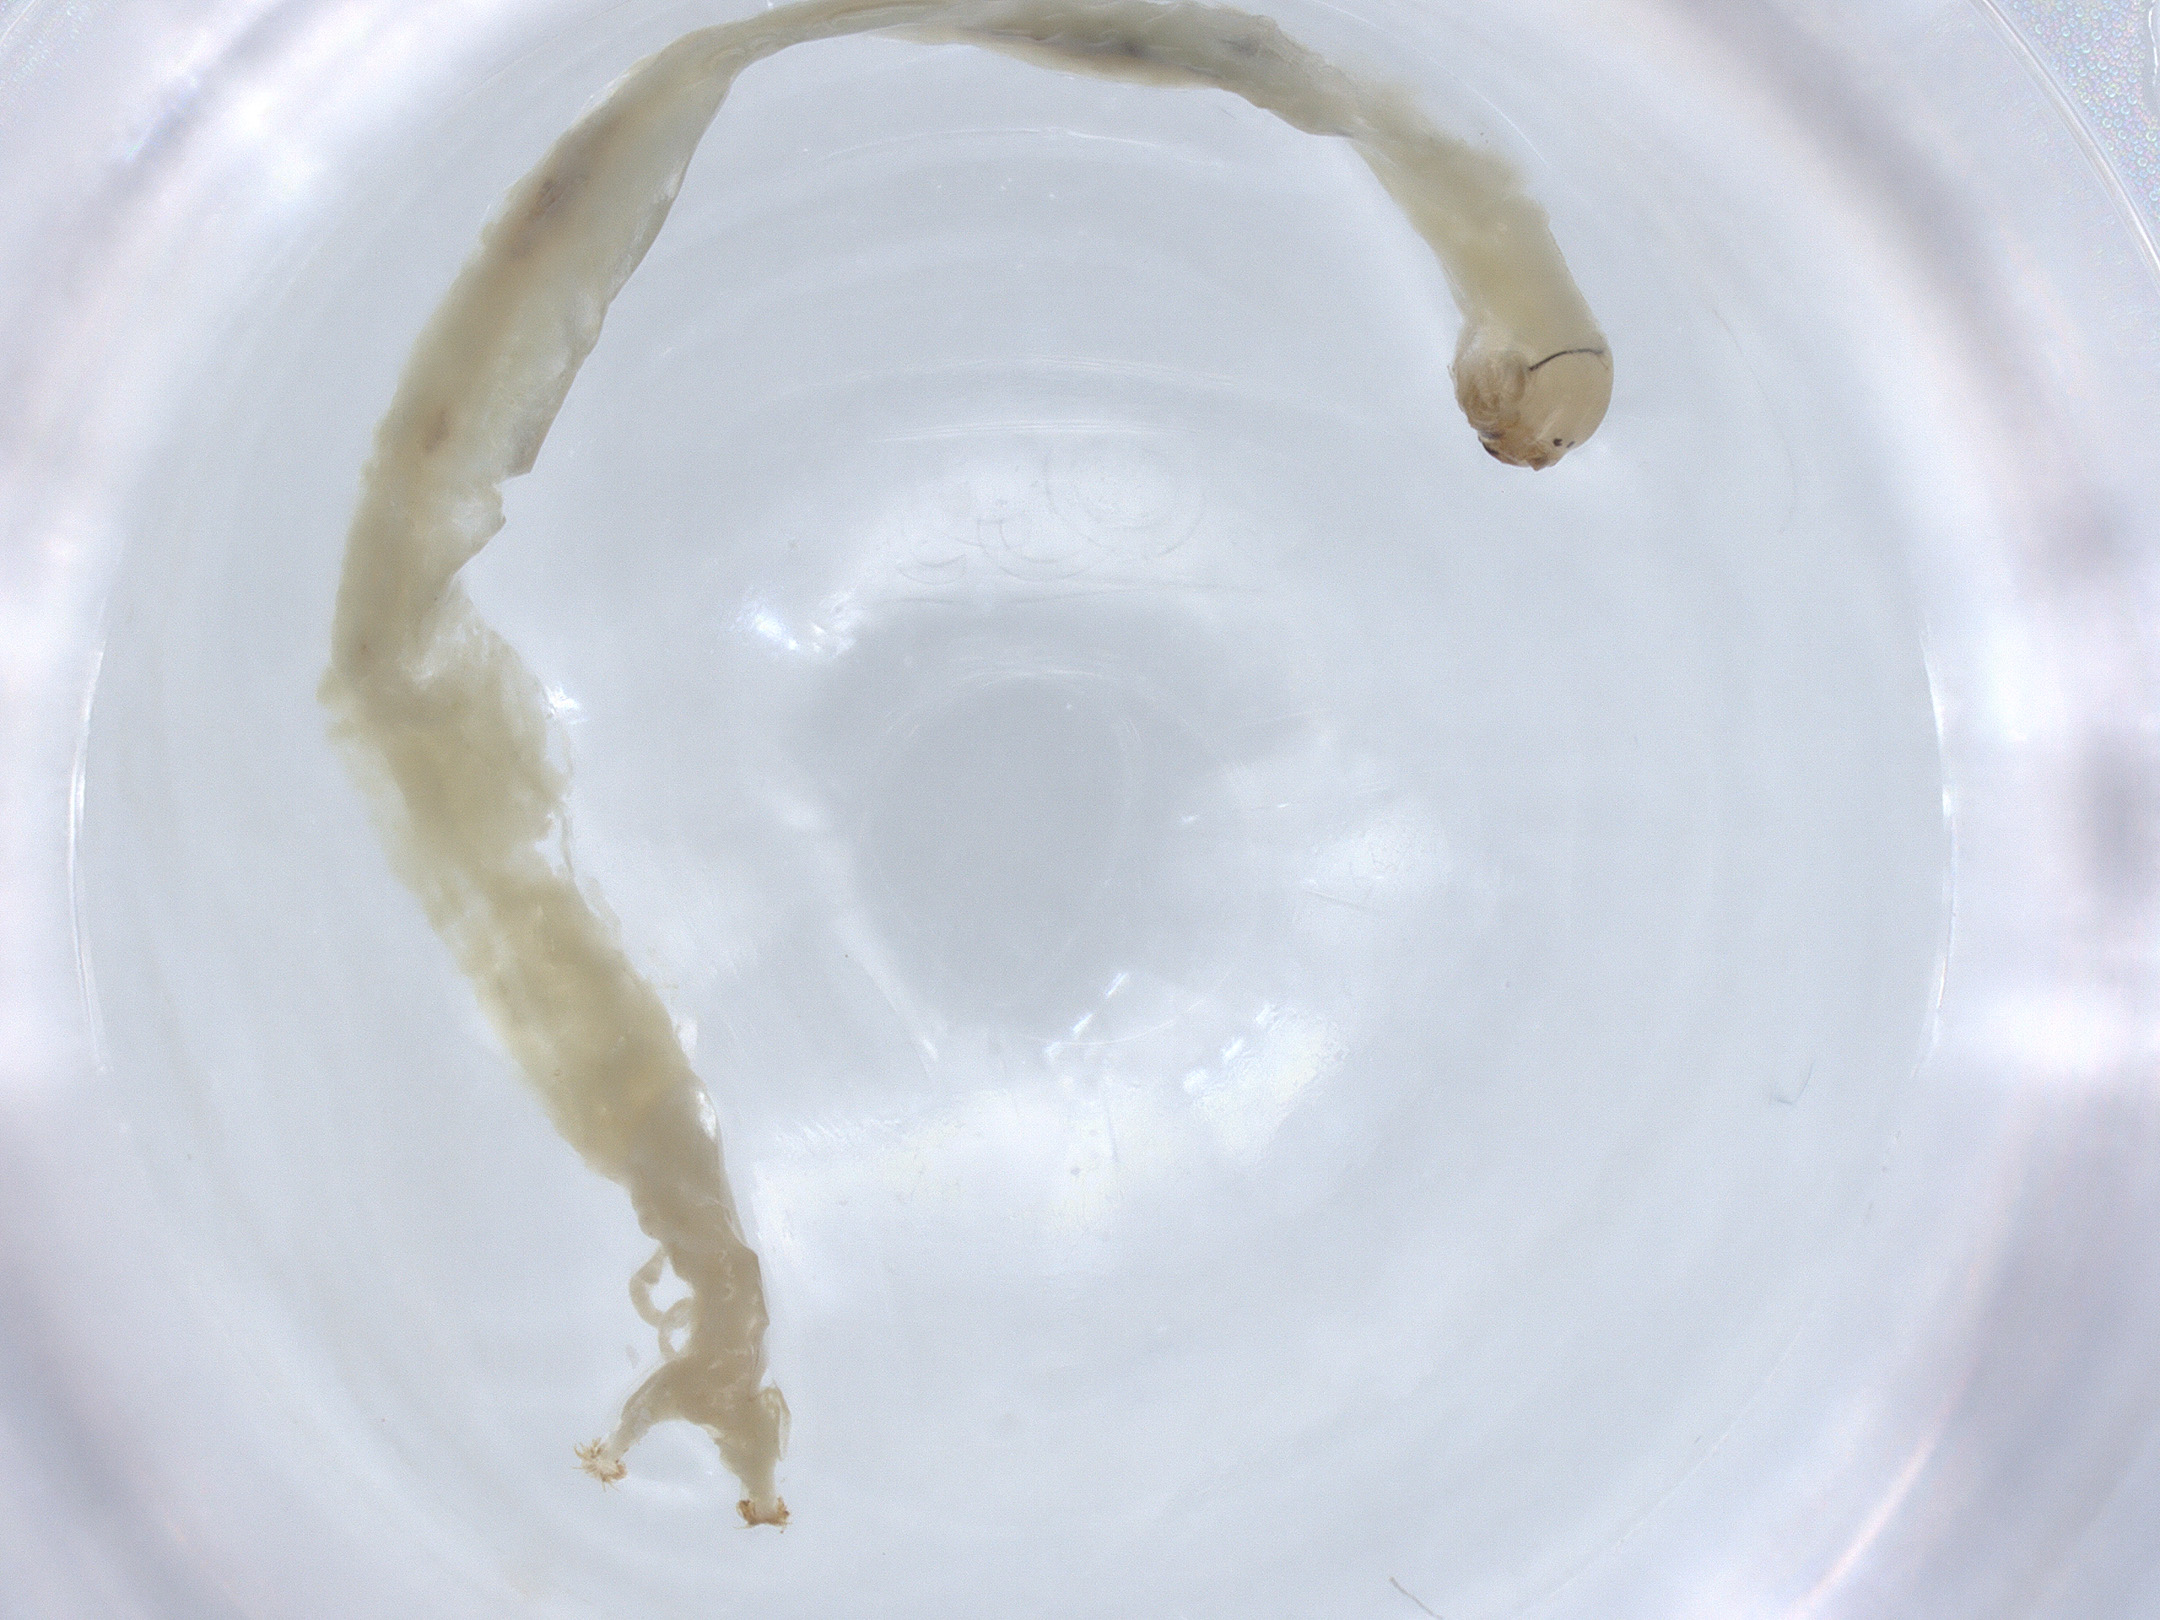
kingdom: Animalia
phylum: Arthropoda
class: Insecta
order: Diptera
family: Chironomidae
